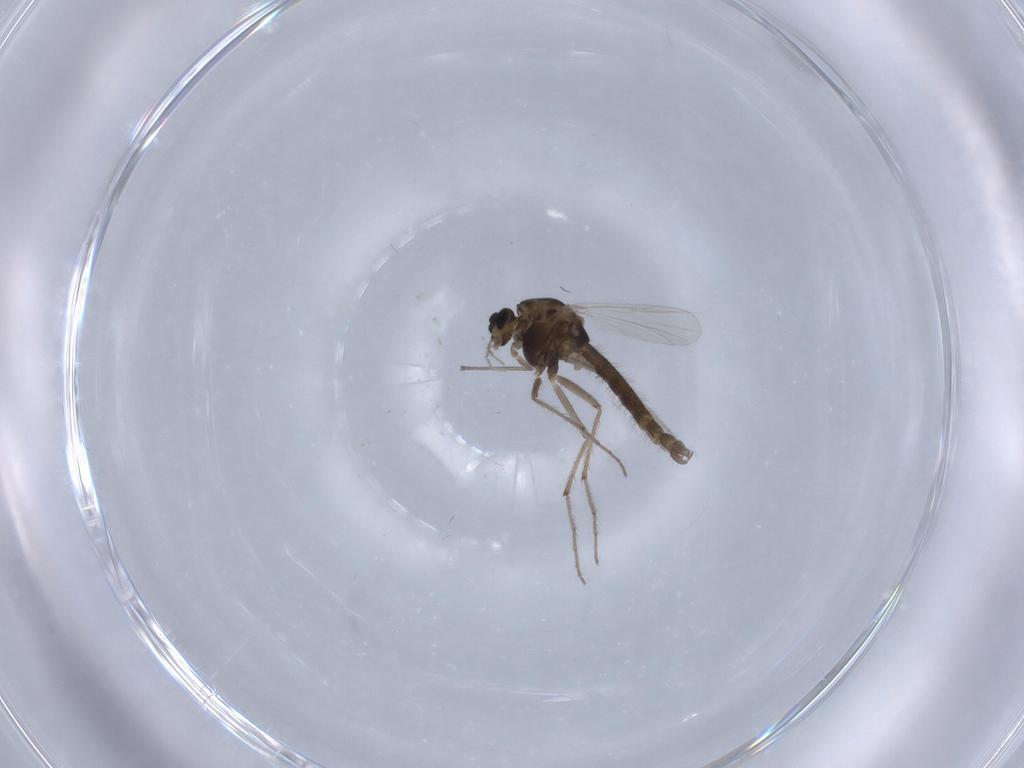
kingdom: Animalia
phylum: Arthropoda
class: Insecta
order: Diptera
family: Chironomidae
